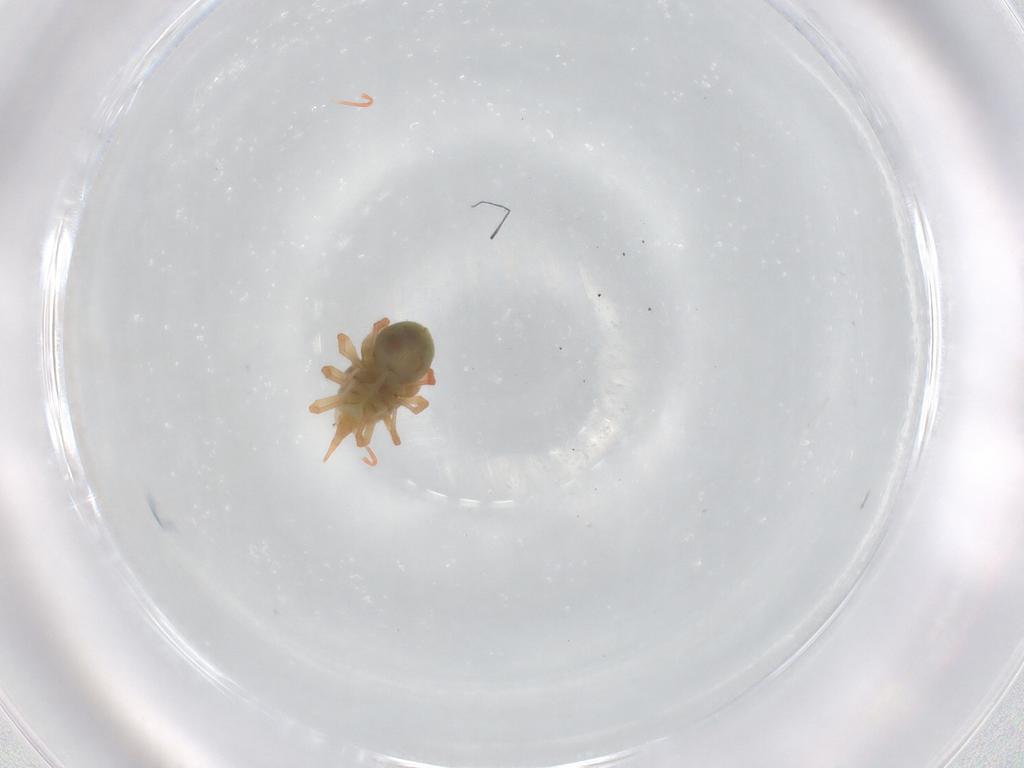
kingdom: Animalia
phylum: Arthropoda
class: Arachnida
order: Trombidiformes
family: Bdellidae
